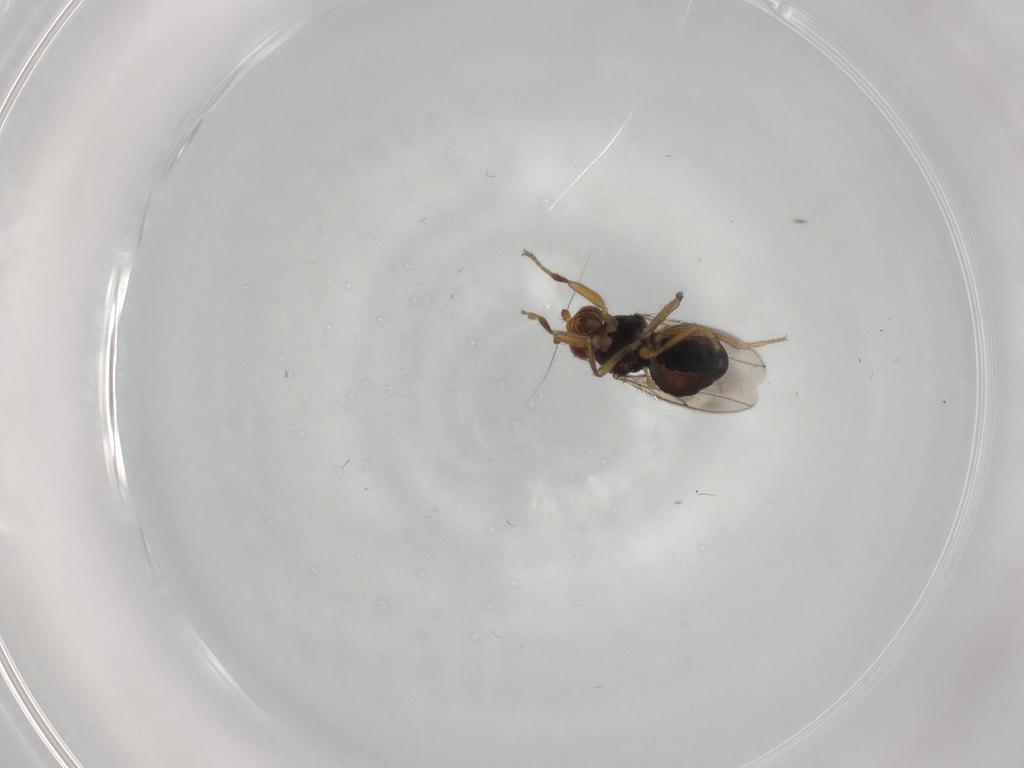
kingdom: Animalia
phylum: Arthropoda
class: Insecta
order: Diptera
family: Sphaeroceridae
